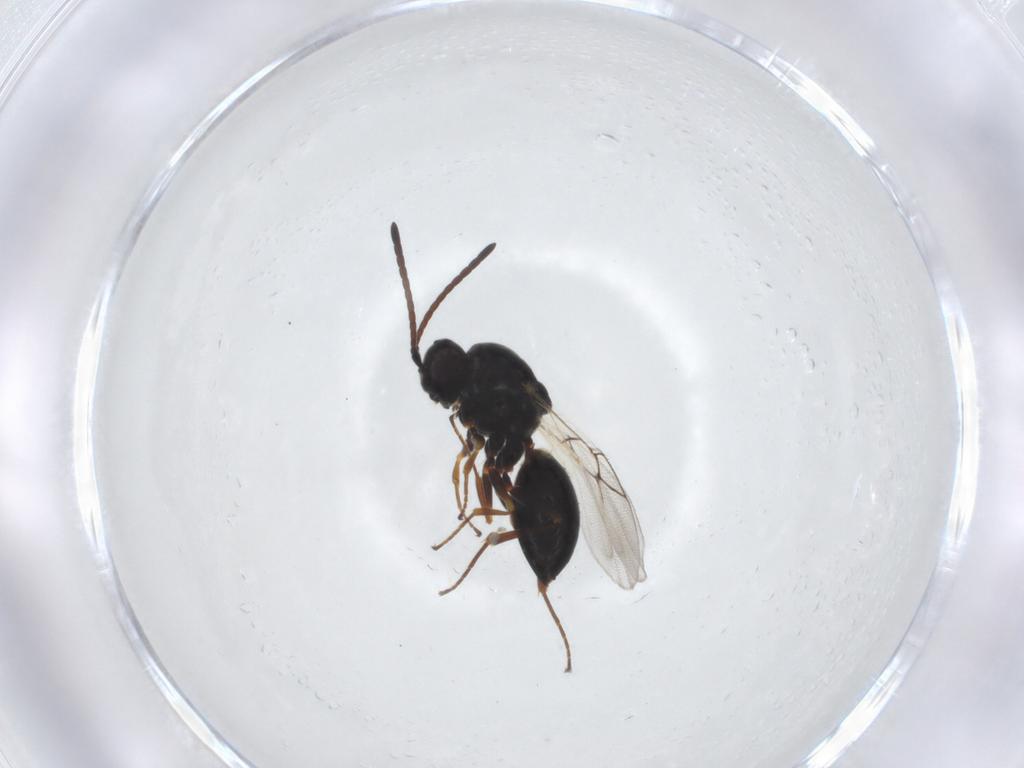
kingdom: Animalia
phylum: Arthropoda
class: Insecta
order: Hymenoptera
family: Figitidae
